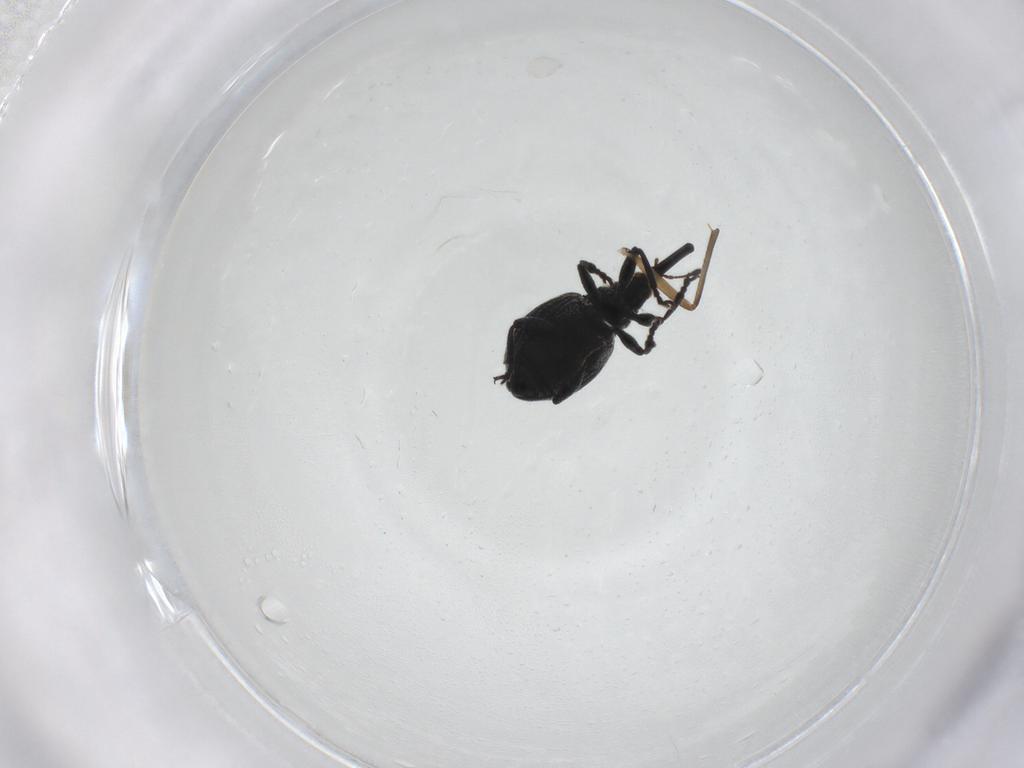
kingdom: Animalia
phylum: Arthropoda
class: Insecta
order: Coleoptera
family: Brentidae
